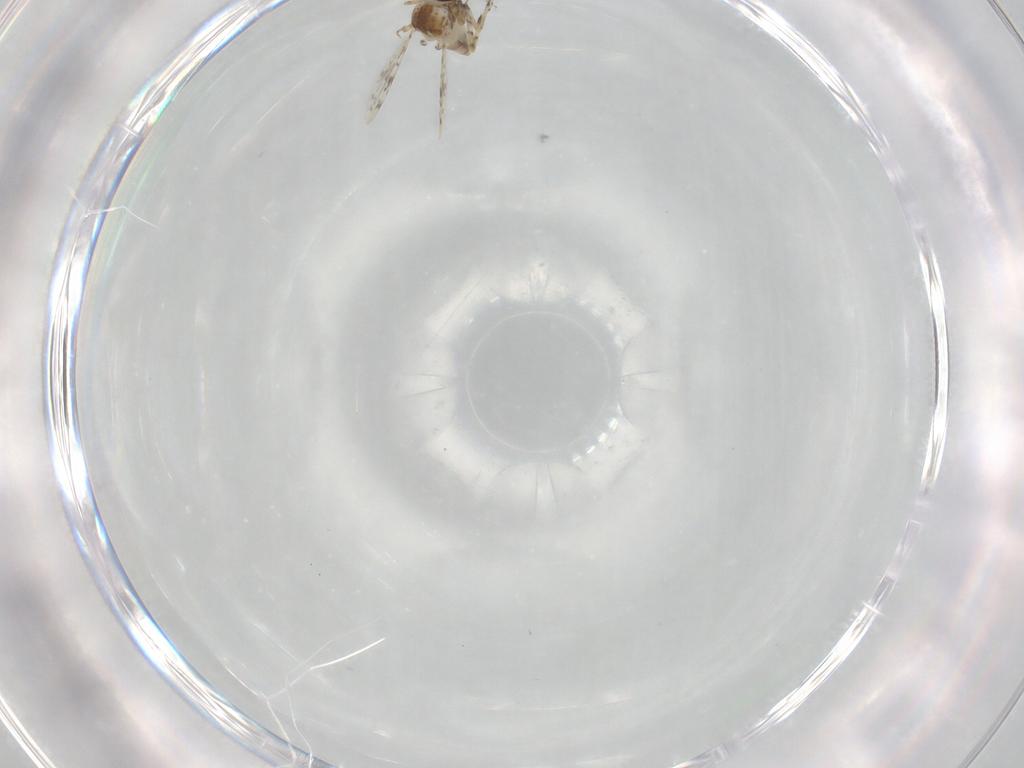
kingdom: Animalia
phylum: Arthropoda
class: Insecta
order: Diptera
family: Ceratopogonidae
